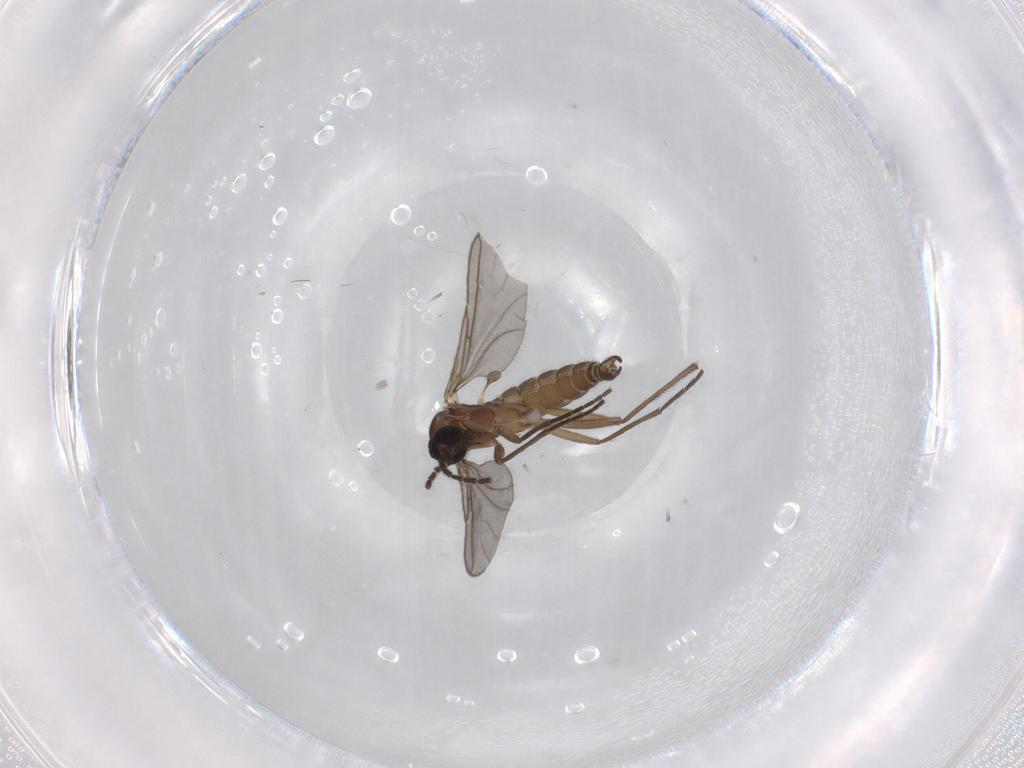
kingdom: Animalia
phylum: Arthropoda
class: Insecta
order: Diptera
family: Sciaridae
